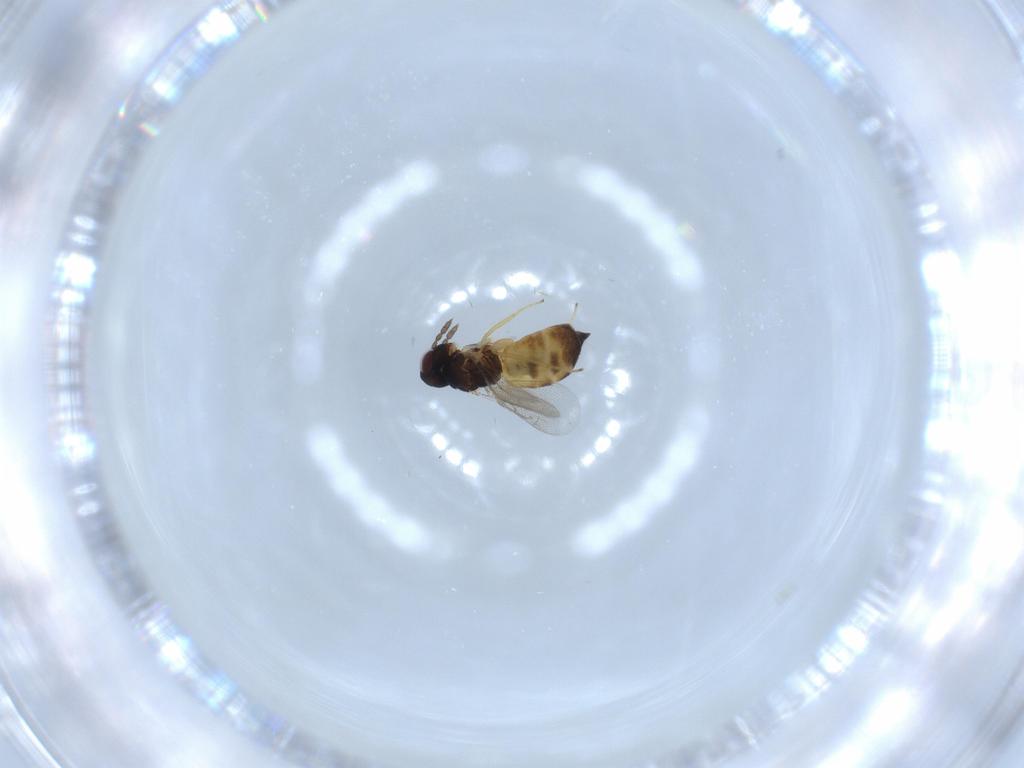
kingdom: Animalia
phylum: Arthropoda
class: Insecta
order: Hymenoptera
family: Eulophidae
